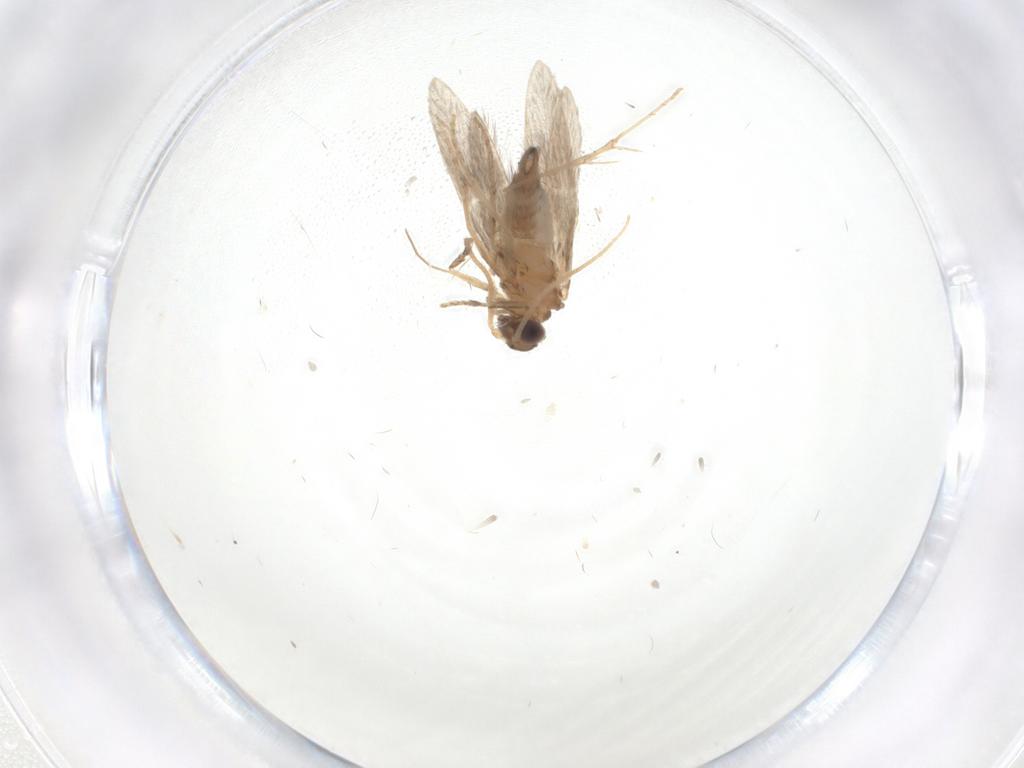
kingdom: Animalia
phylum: Arthropoda
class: Insecta
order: Trichoptera
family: Hydroptilidae
